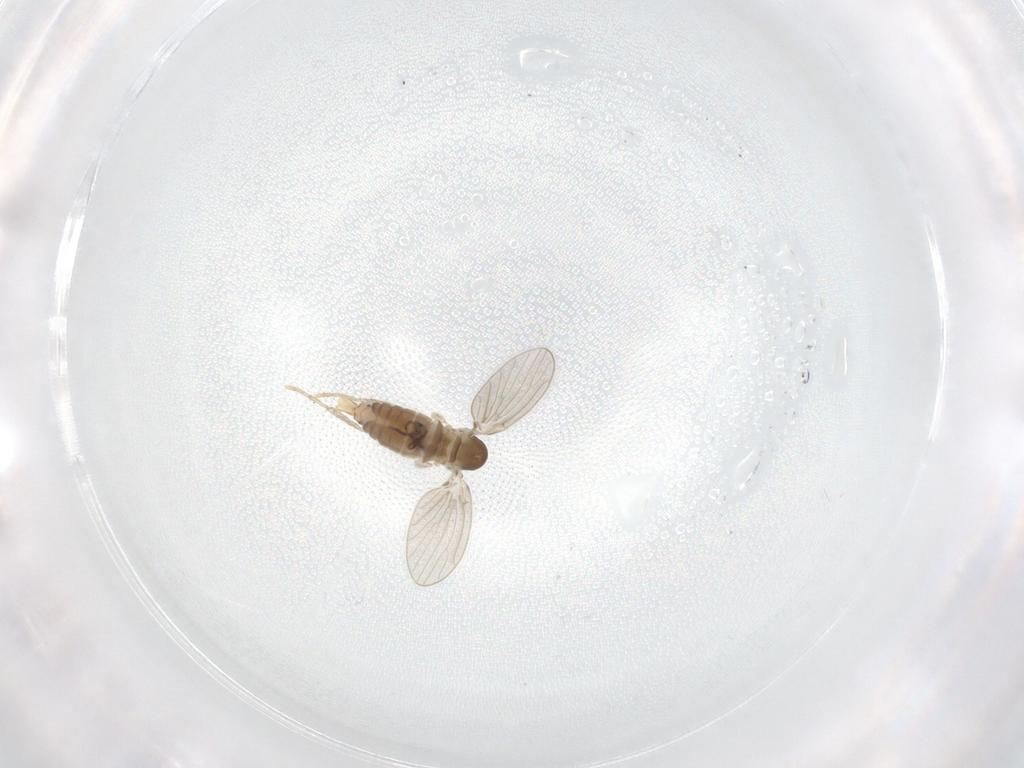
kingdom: Animalia
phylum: Arthropoda
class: Insecta
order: Diptera
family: Psychodidae
